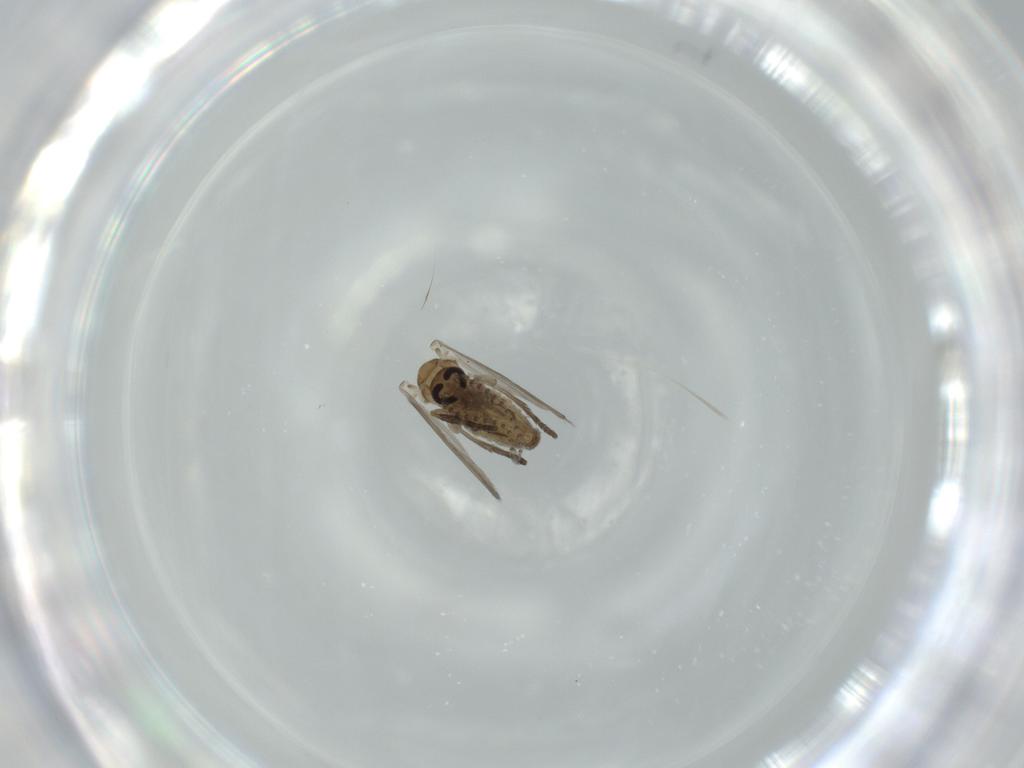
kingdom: Animalia
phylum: Arthropoda
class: Insecta
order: Diptera
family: Psychodidae
